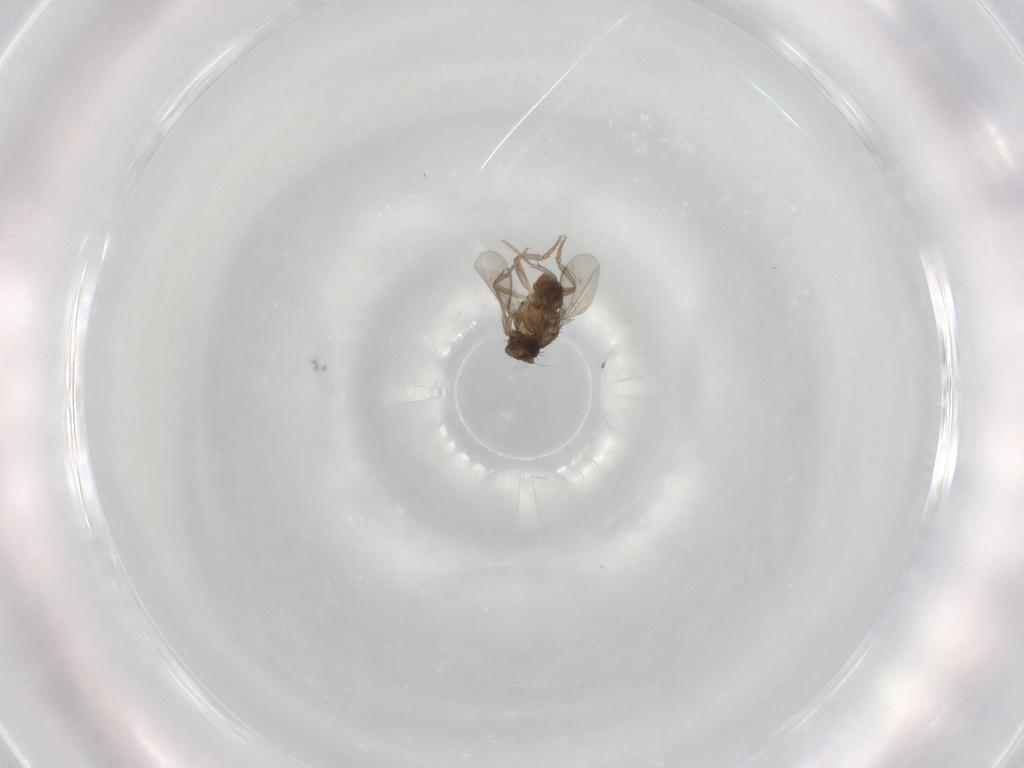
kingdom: Animalia
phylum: Arthropoda
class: Insecta
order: Diptera
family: Sphaeroceridae
